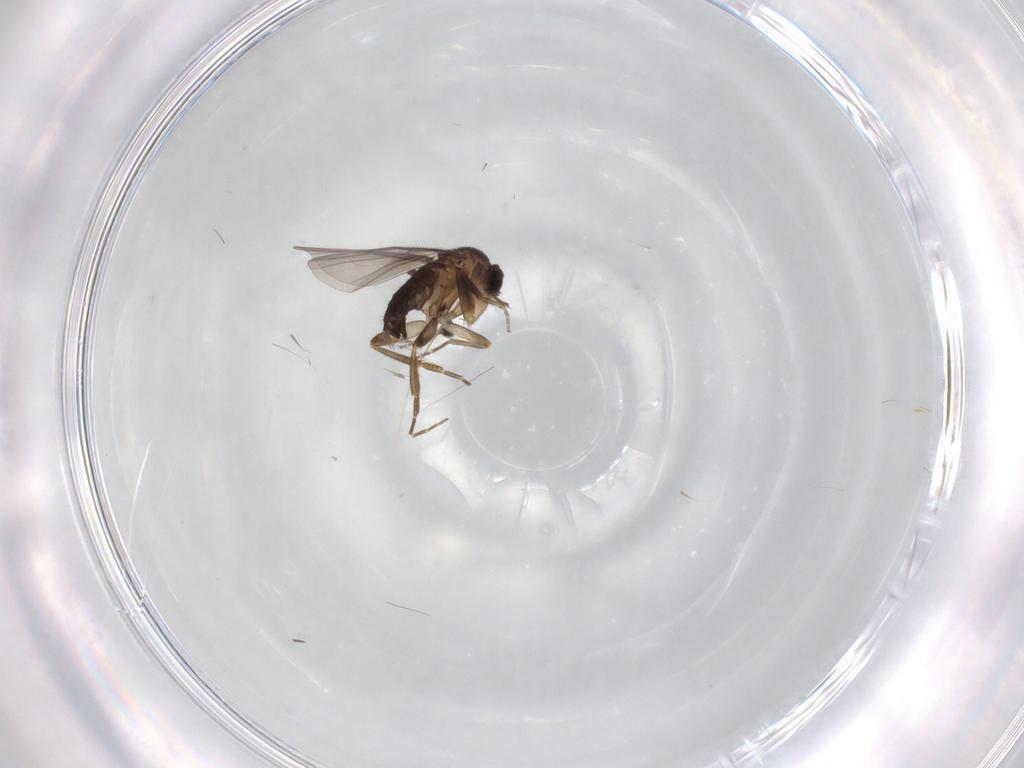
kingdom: Animalia
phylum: Arthropoda
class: Insecta
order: Diptera
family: Phoridae
